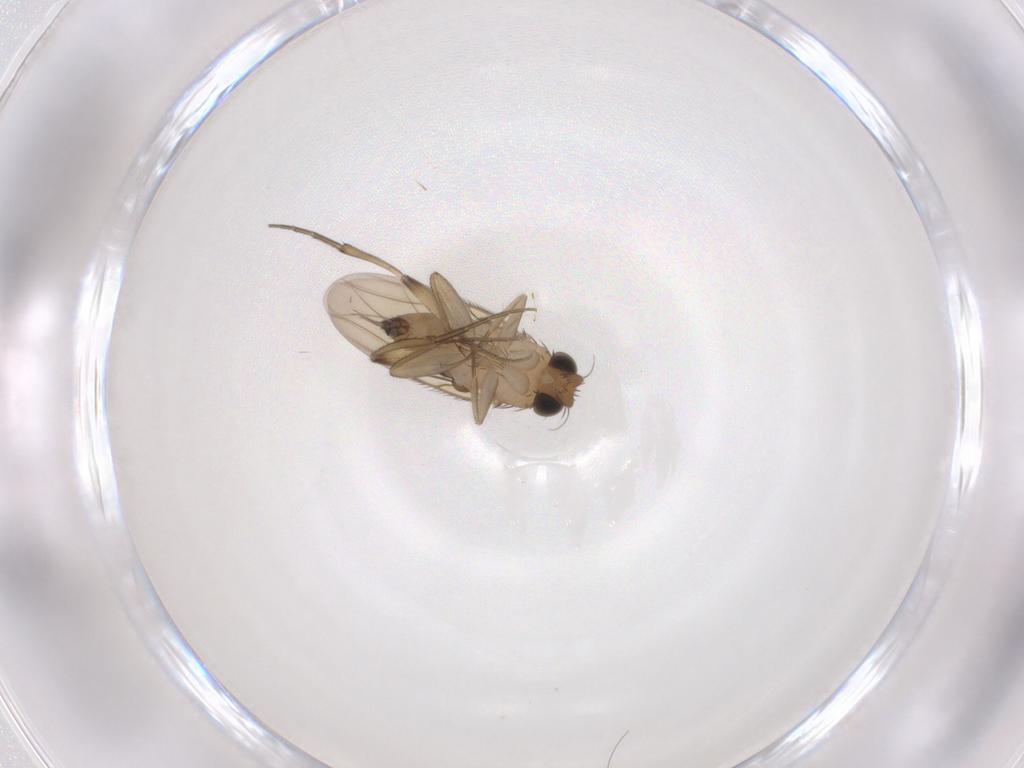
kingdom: Animalia
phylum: Arthropoda
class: Insecta
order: Diptera
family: Phoridae
